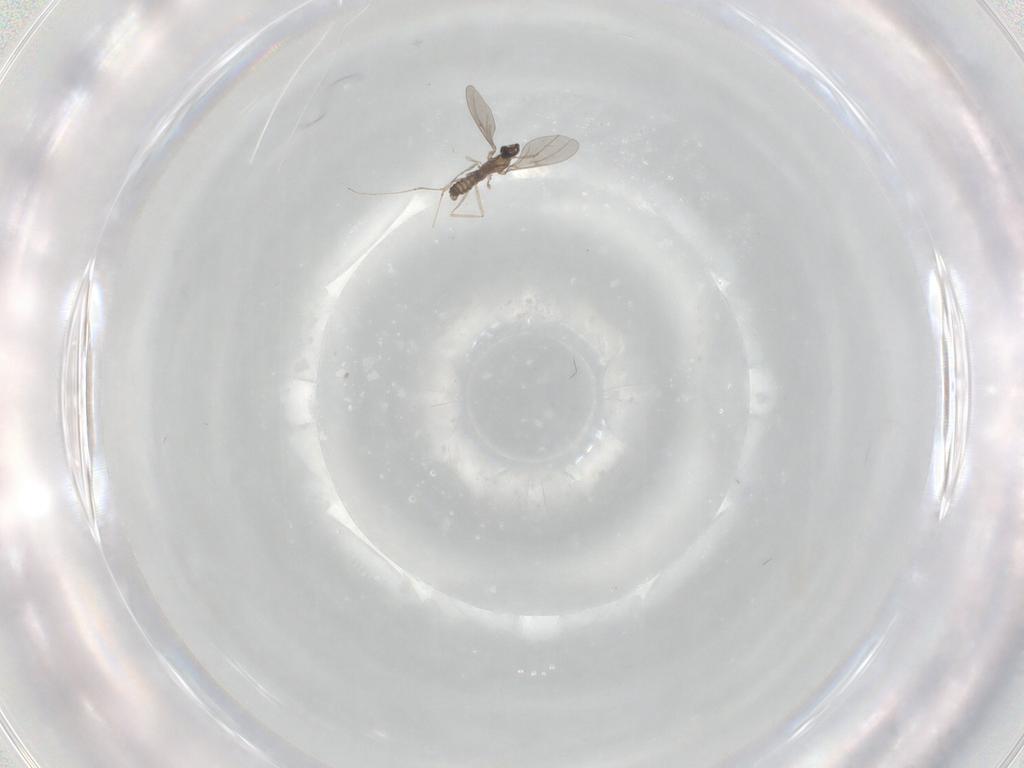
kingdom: Animalia
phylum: Arthropoda
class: Insecta
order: Diptera
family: Cecidomyiidae
